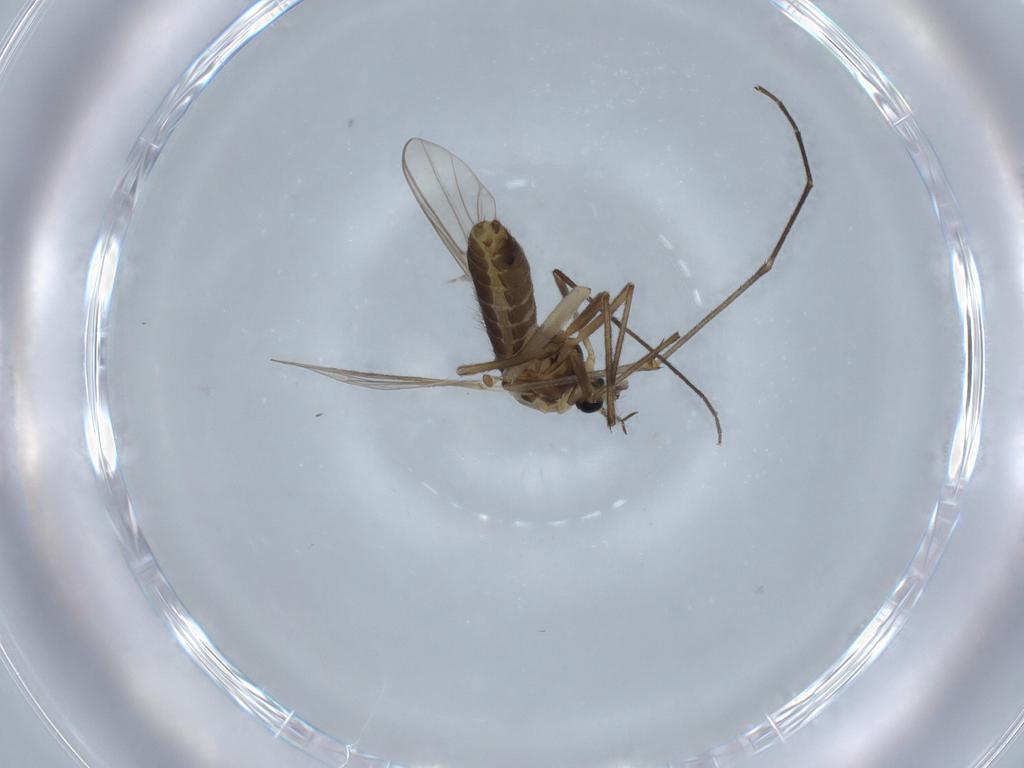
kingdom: Animalia
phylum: Arthropoda
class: Insecta
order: Diptera
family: Chironomidae
